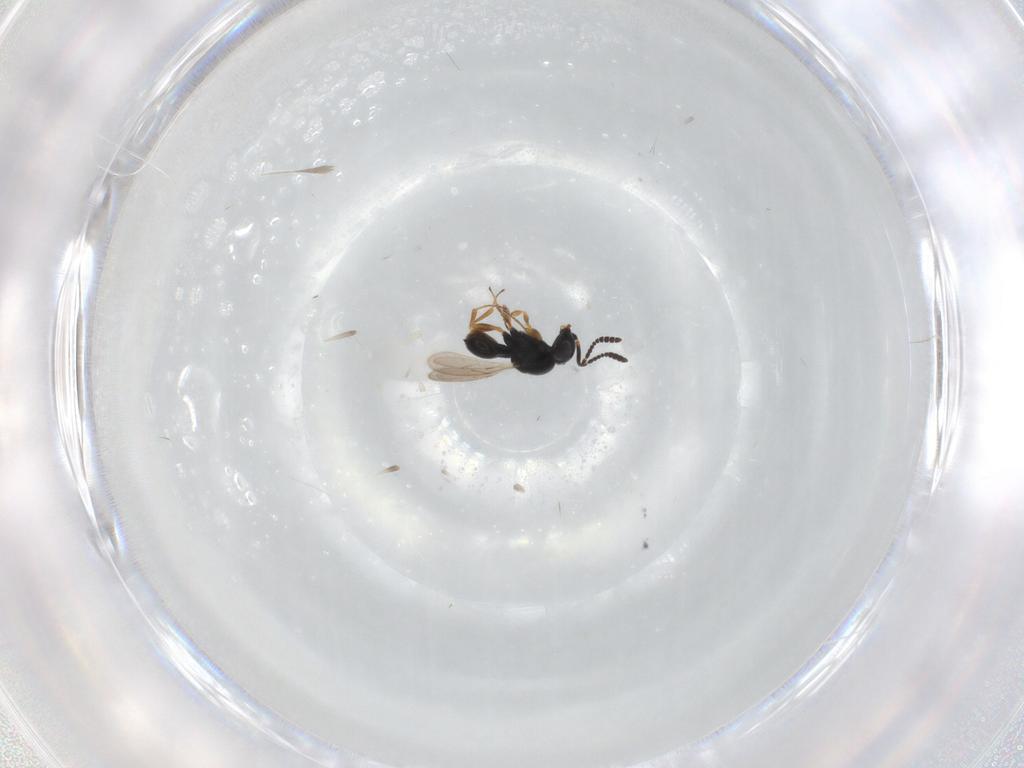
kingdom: Animalia
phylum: Arthropoda
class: Insecta
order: Hymenoptera
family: Scelionidae
